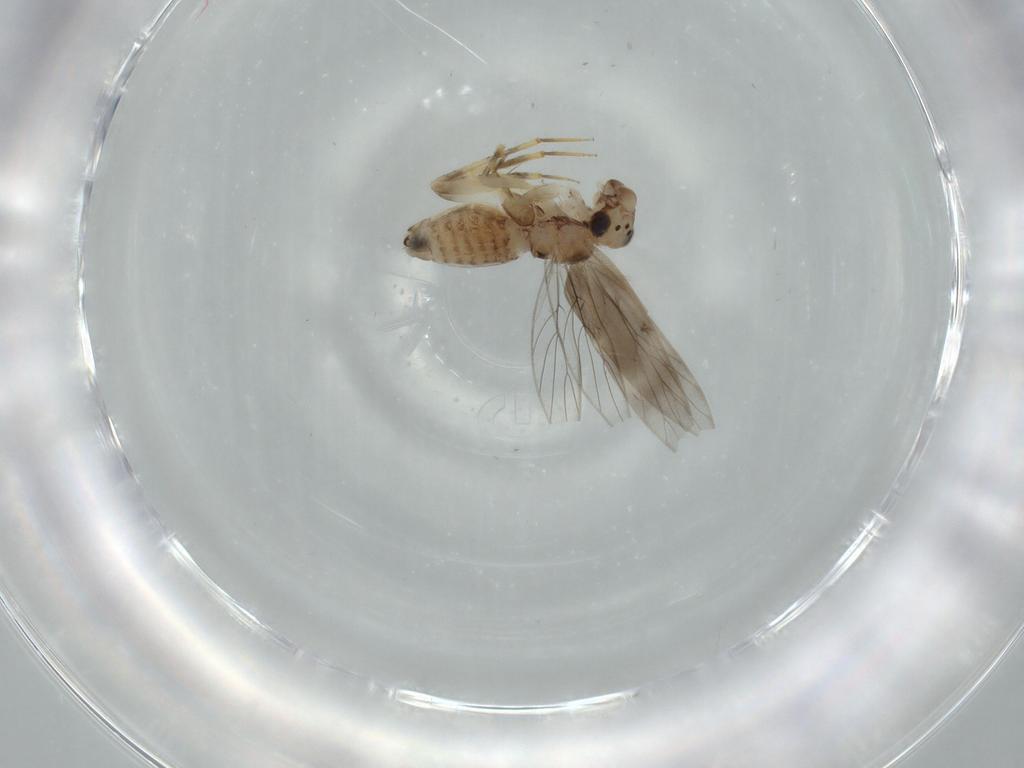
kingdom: Animalia
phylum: Arthropoda
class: Insecta
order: Psocodea
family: Lepidopsocidae
